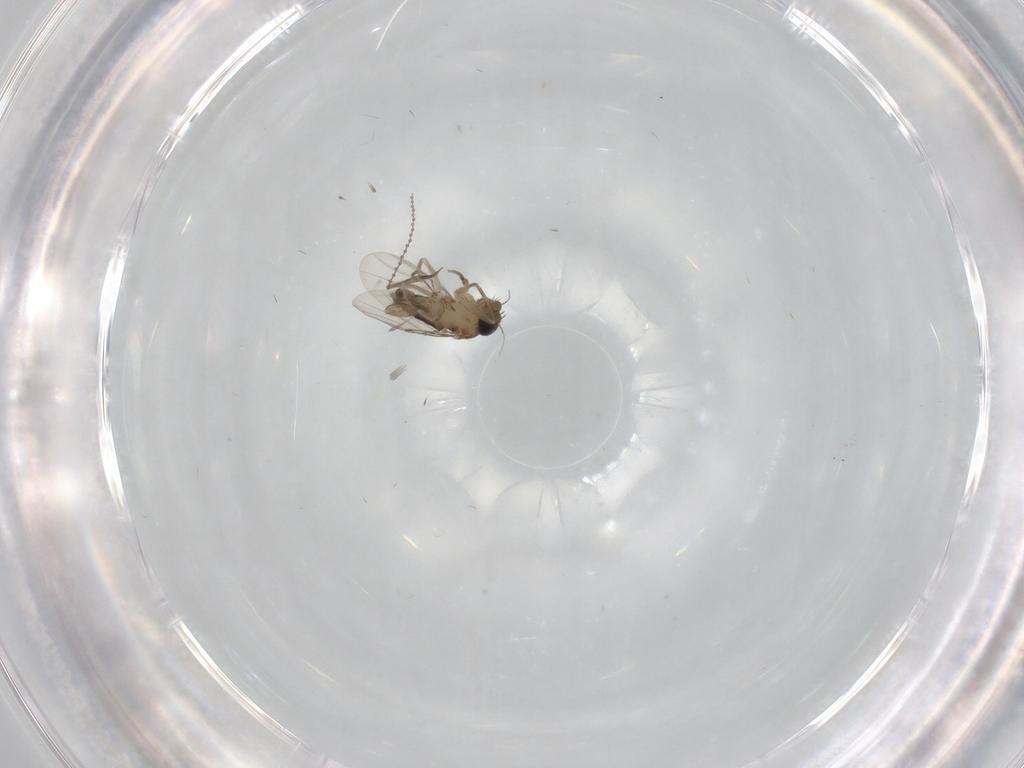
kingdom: Animalia
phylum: Arthropoda
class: Insecta
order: Diptera
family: Phoridae
